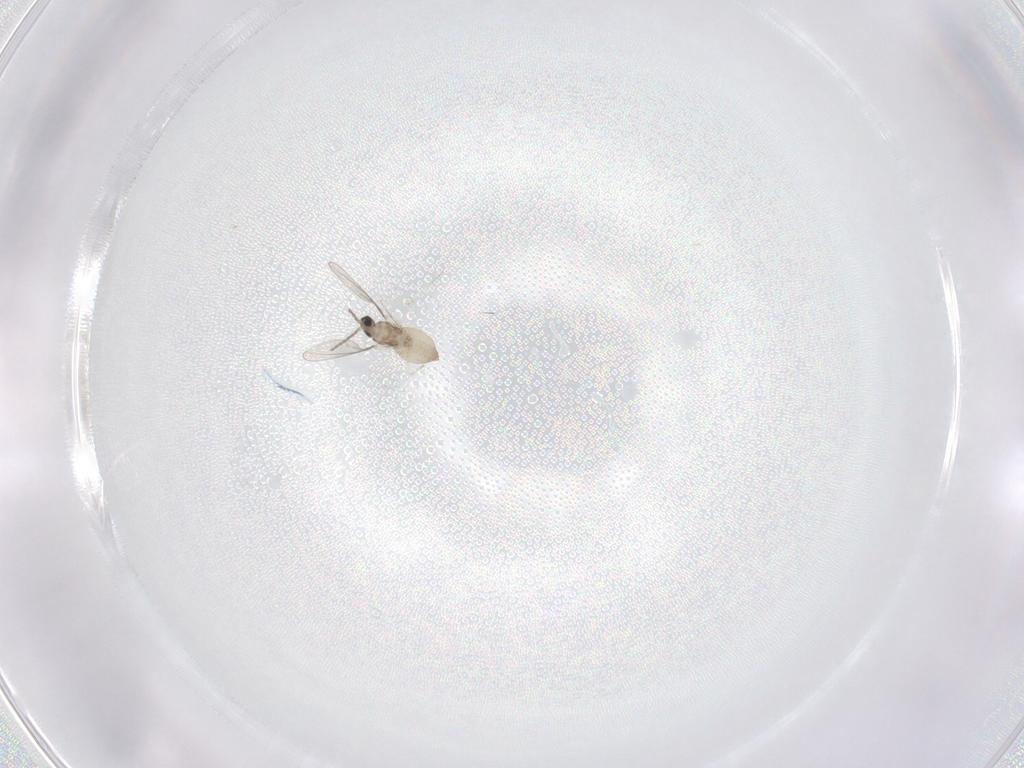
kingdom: Animalia
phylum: Arthropoda
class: Insecta
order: Diptera
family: Cecidomyiidae
